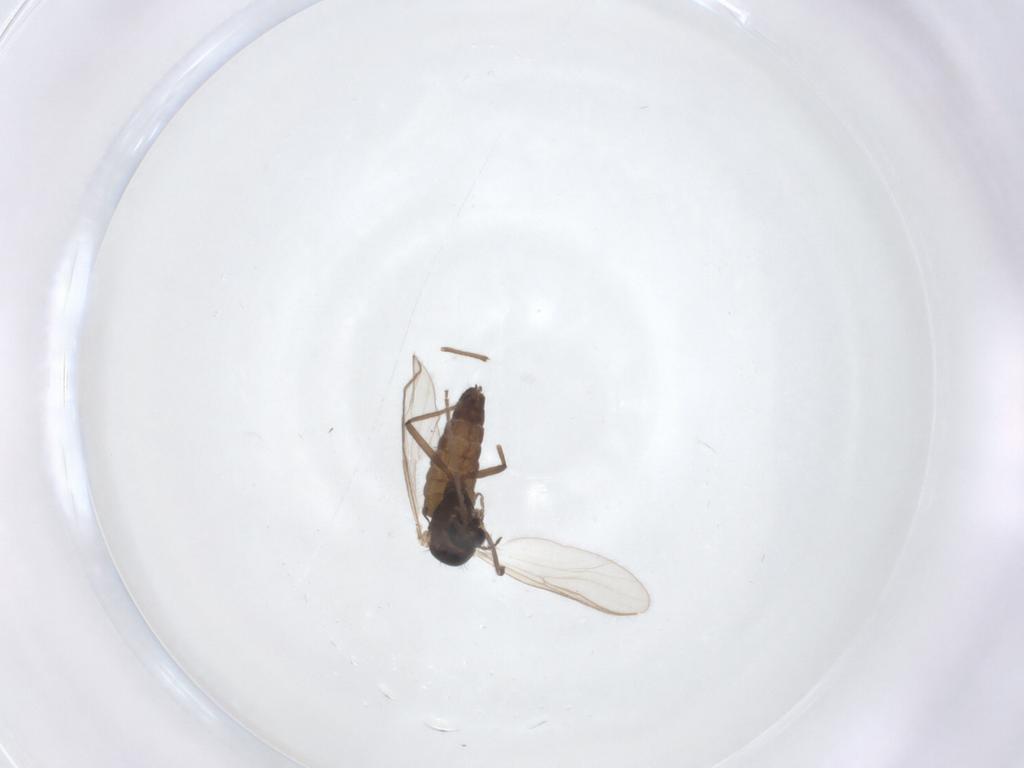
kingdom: Animalia
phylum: Arthropoda
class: Insecta
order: Diptera
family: Chironomidae
